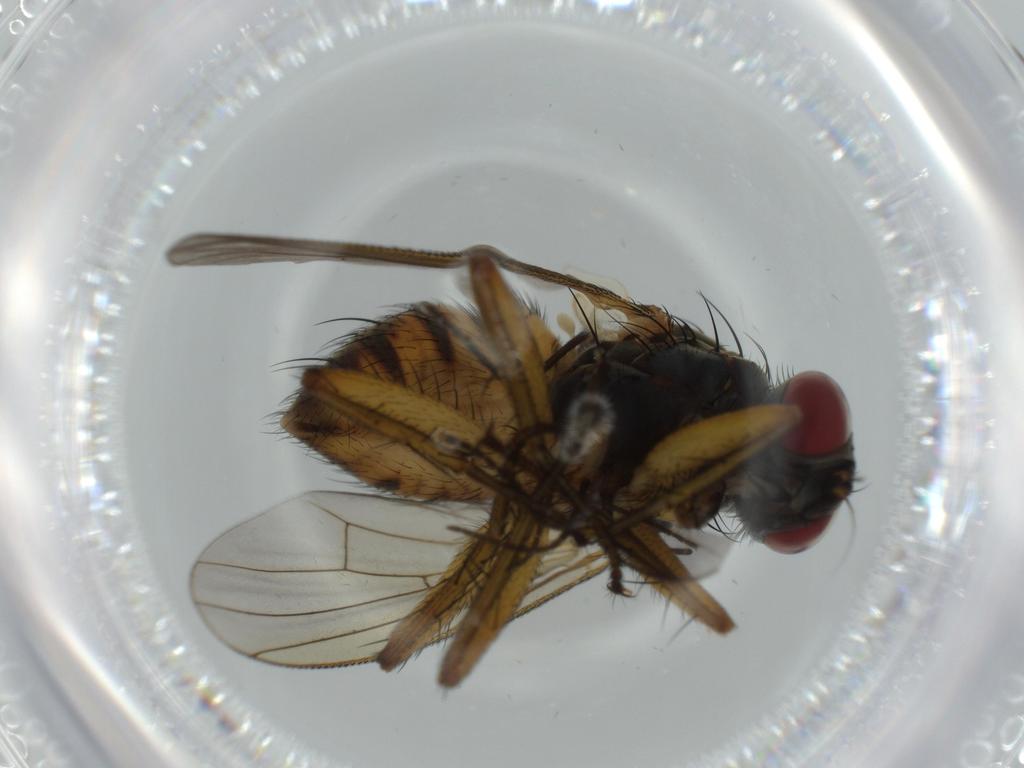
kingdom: Animalia
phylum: Arthropoda
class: Insecta
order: Diptera
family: Muscidae
